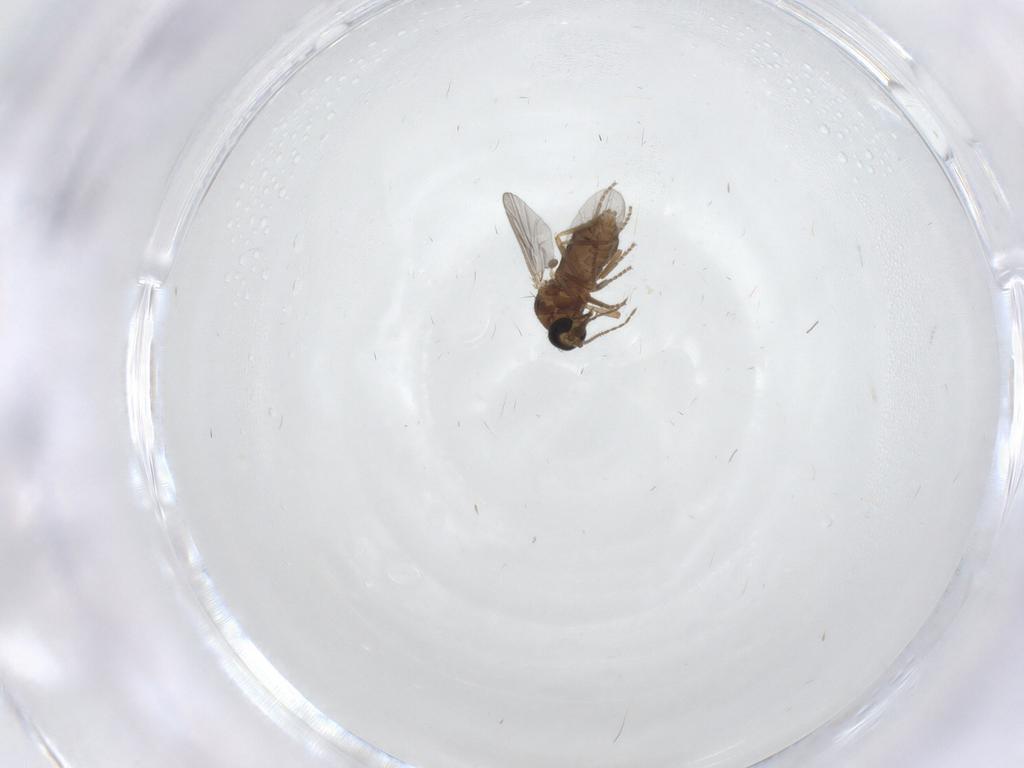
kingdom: Animalia
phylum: Arthropoda
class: Insecta
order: Diptera
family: Ceratopogonidae
